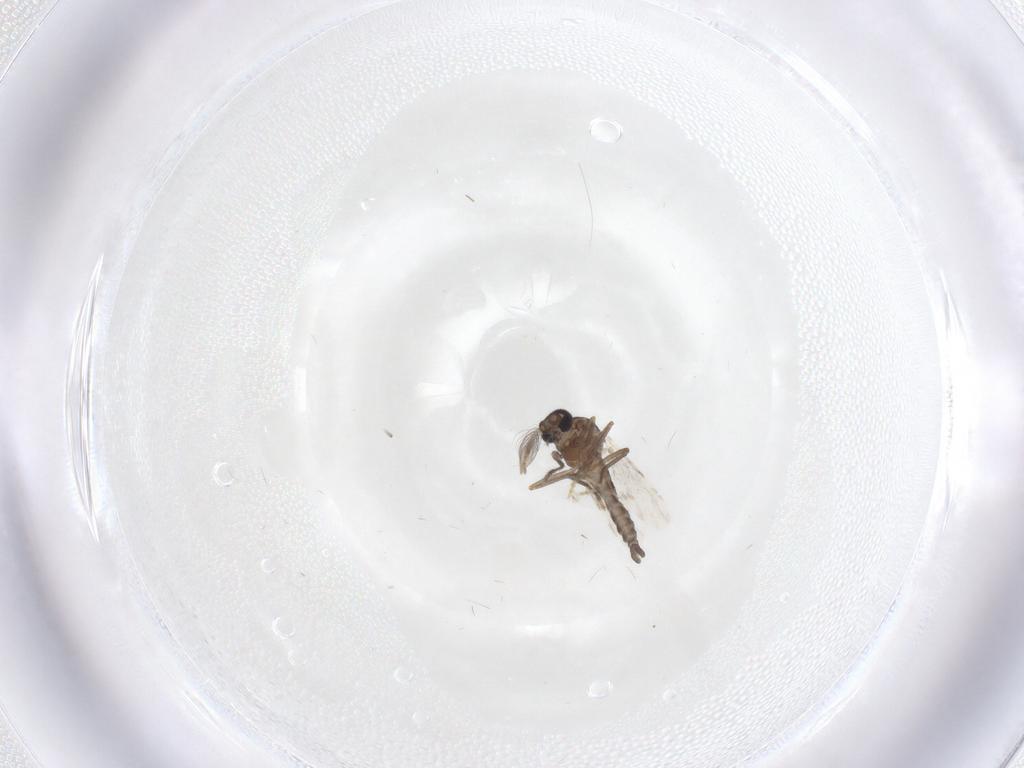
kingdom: Animalia
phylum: Arthropoda
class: Insecta
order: Diptera
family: Ceratopogonidae
